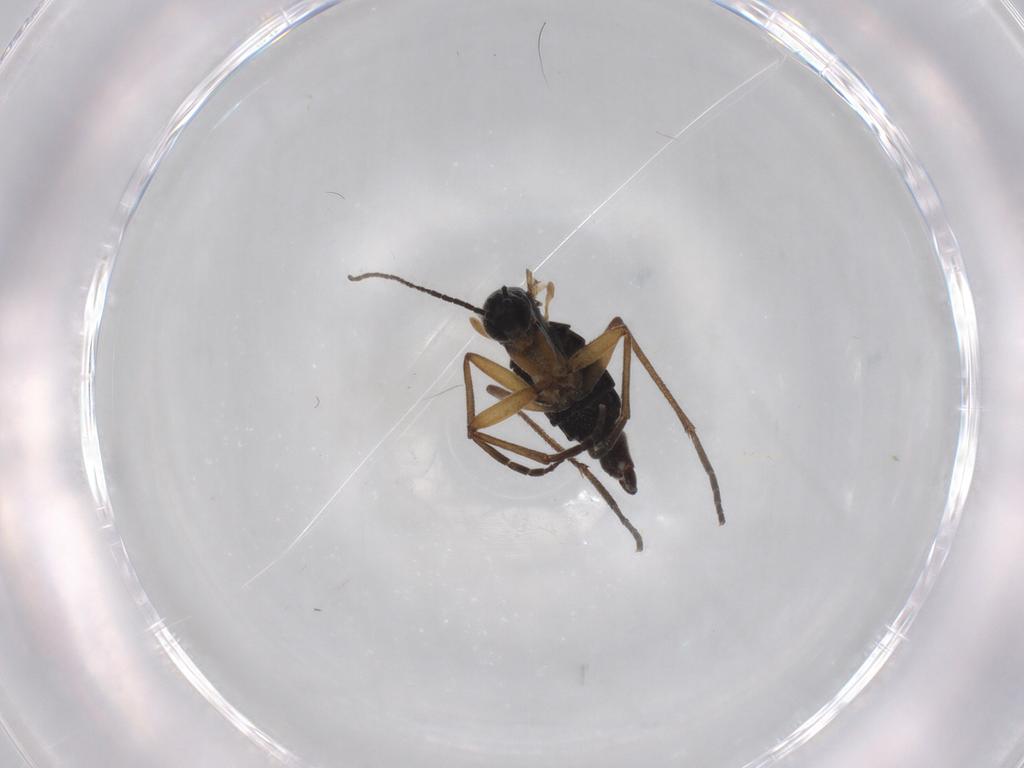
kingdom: Animalia
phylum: Arthropoda
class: Insecta
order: Diptera
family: Sciaridae
